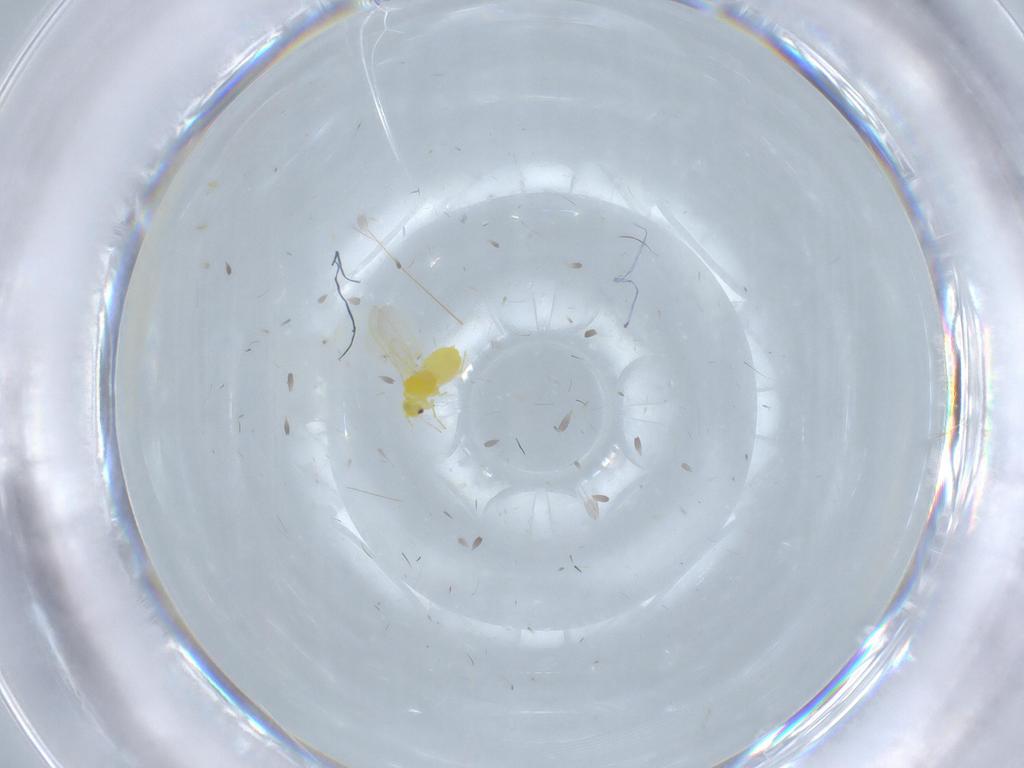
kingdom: Animalia
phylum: Arthropoda
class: Insecta
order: Hemiptera
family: Aleyrodidae
